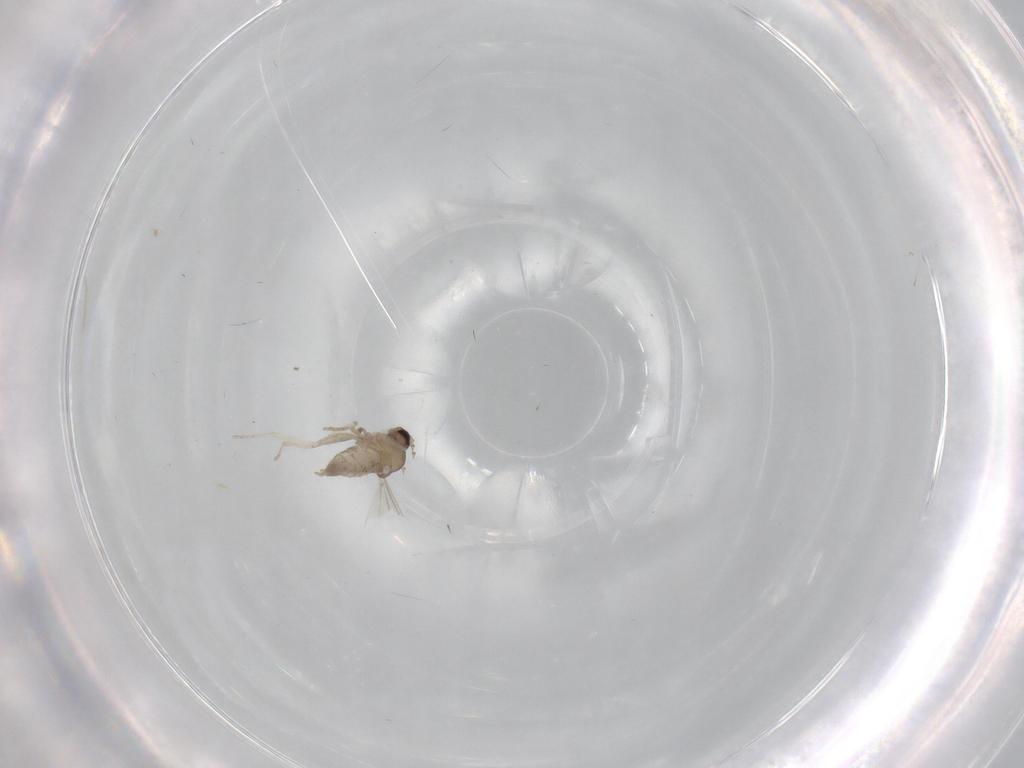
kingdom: Animalia
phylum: Arthropoda
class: Insecta
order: Diptera
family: Cecidomyiidae
